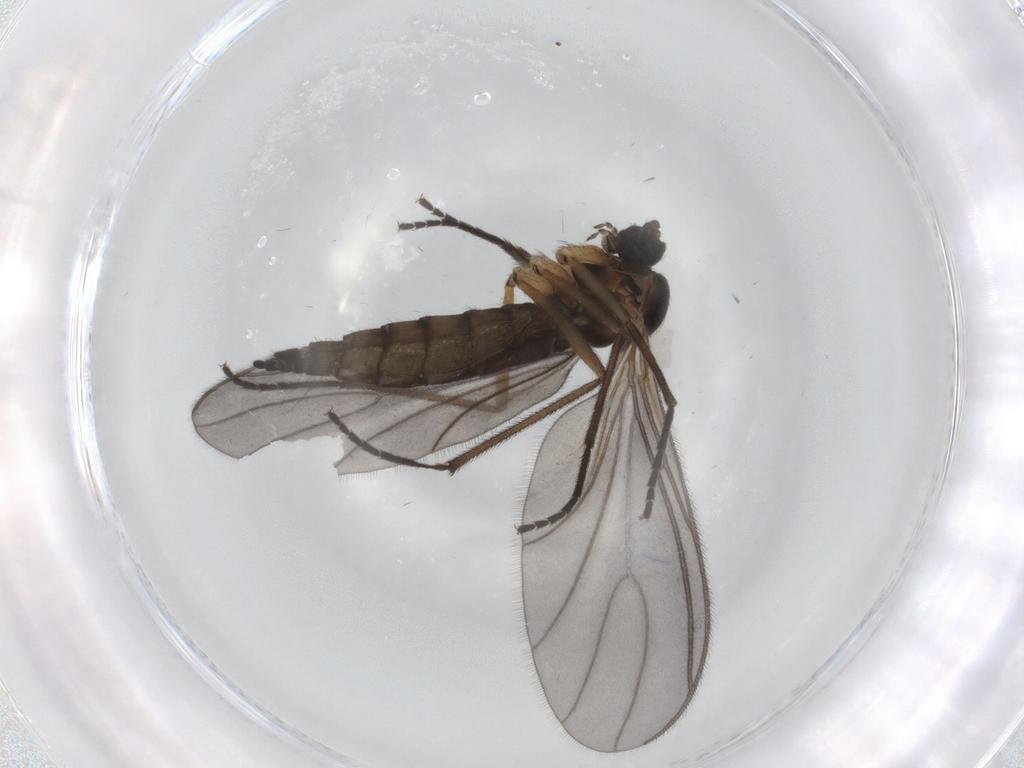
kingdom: Animalia
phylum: Arthropoda
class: Insecta
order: Diptera
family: Sciaridae
